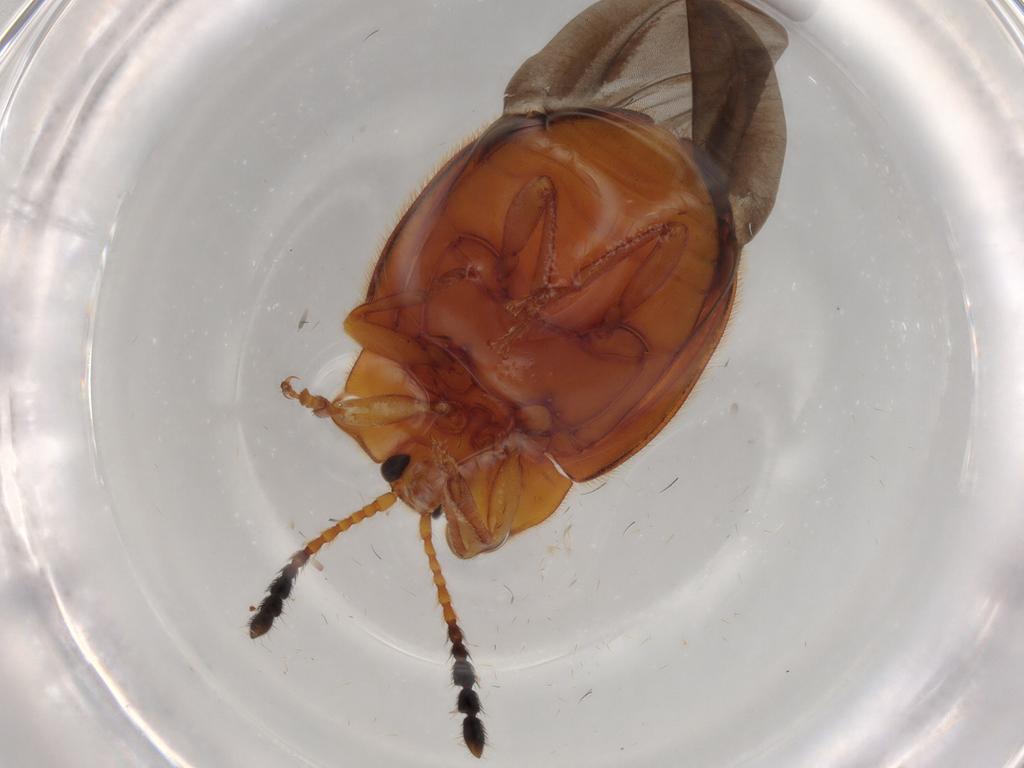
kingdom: Animalia
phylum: Arthropoda
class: Insecta
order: Coleoptera
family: Endomychidae
